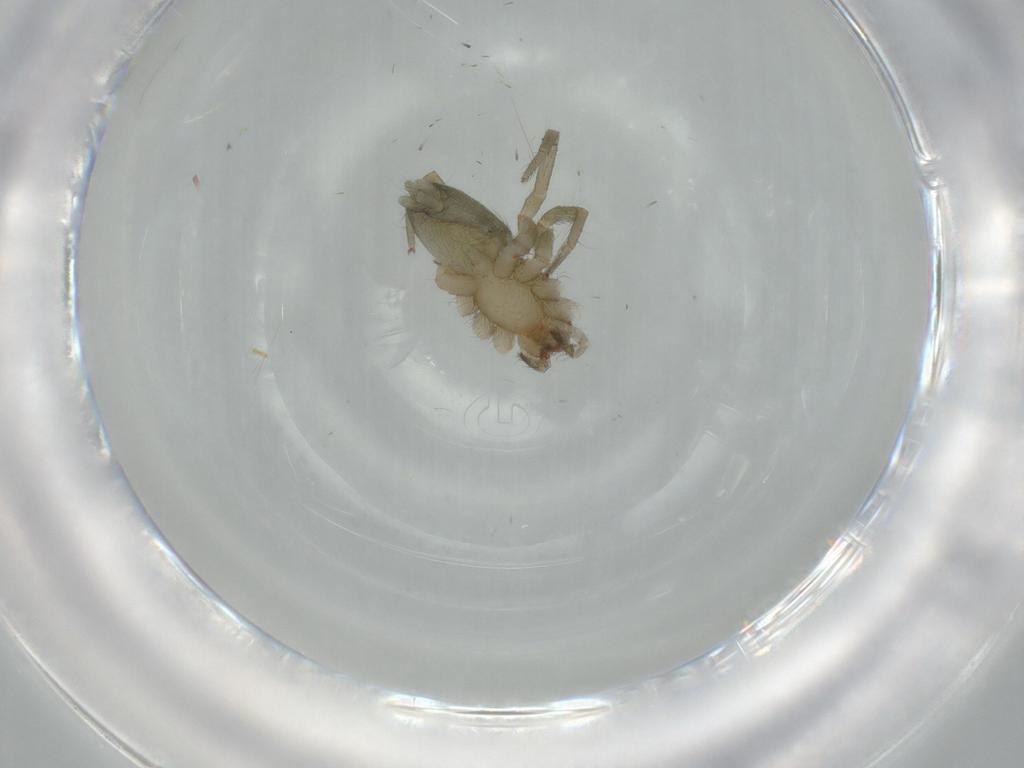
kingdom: Animalia
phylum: Arthropoda
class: Arachnida
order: Araneae
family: Gnaphosidae
